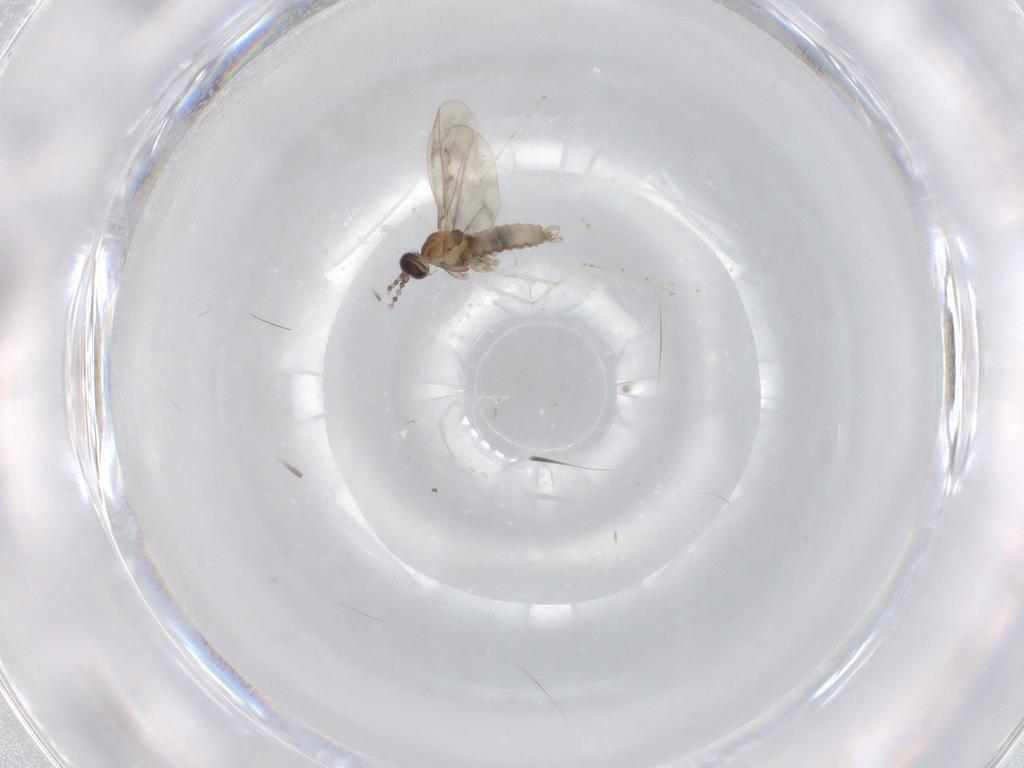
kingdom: Animalia
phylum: Arthropoda
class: Insecta
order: Diptera
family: Cecidomyiidae
